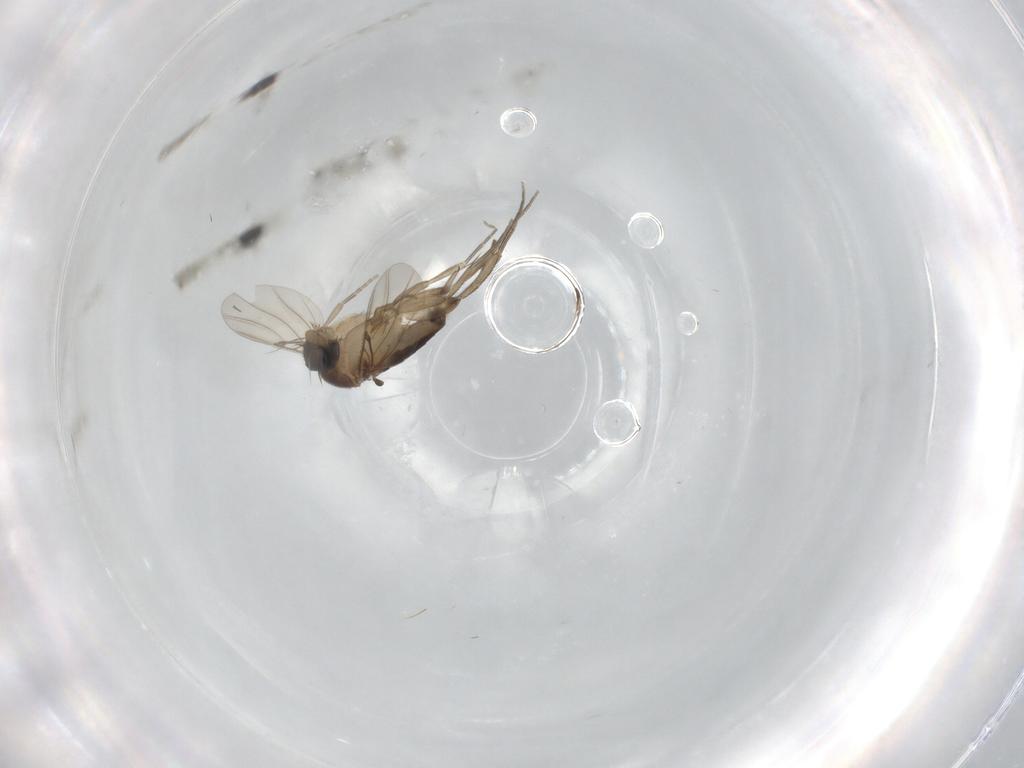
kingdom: Animalia
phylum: Arthropoda
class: Insecta
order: Diptera
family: Phoridae
